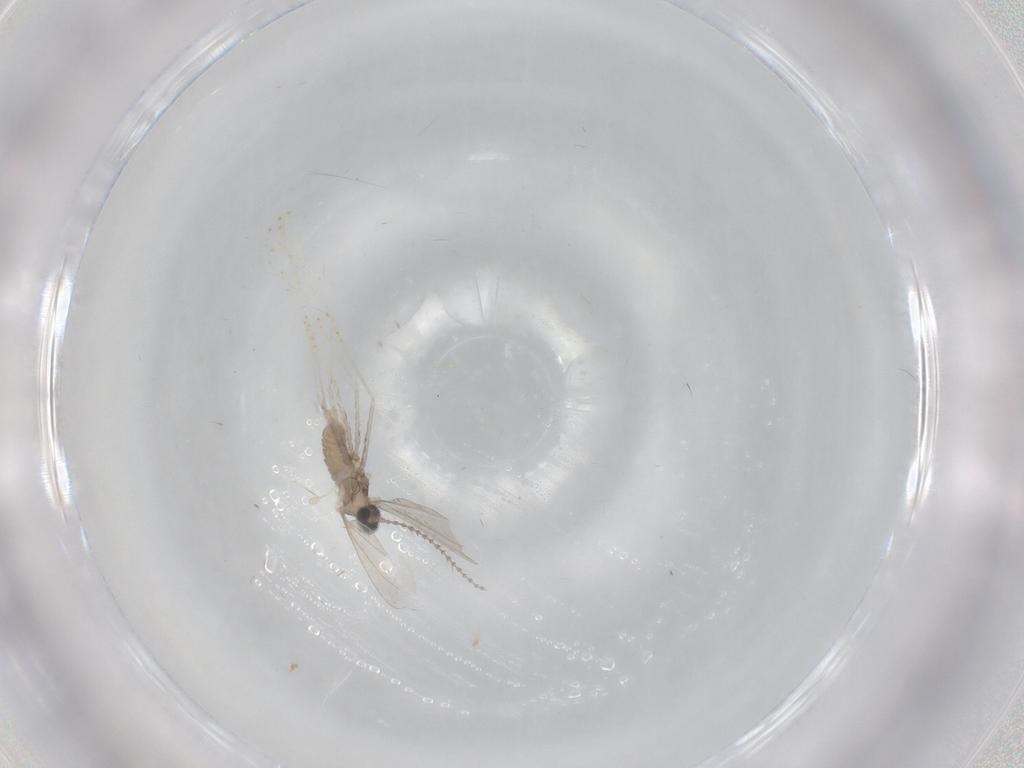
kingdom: Animalia
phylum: Arthropoda
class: Insecta
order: Diptera
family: Cecidomyiidae
